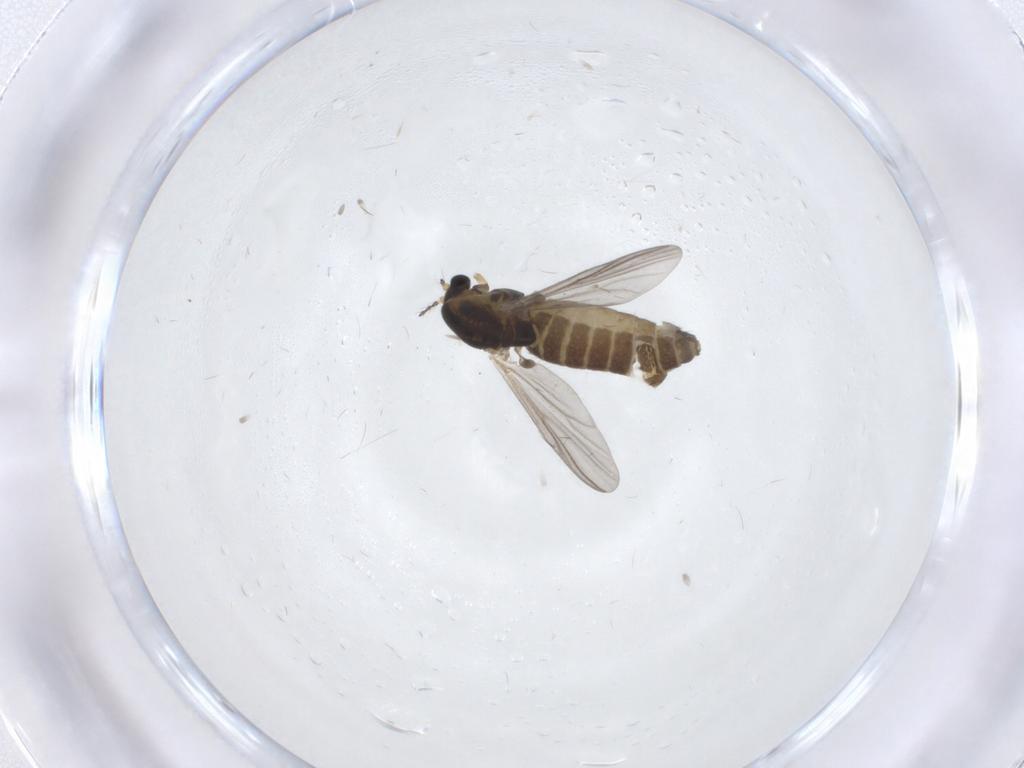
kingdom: Animalia
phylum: Arthropoda
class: Insecta
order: Diptera
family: Chironomidae
